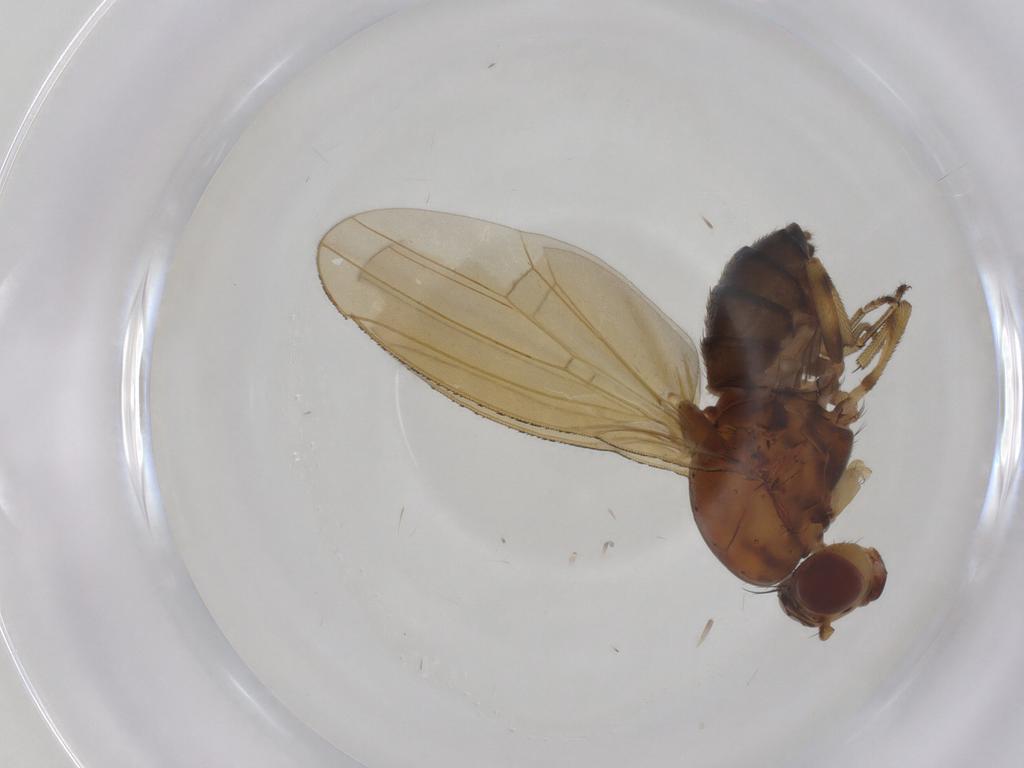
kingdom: Animalia
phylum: Arthropoda
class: Insecta
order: Diptera
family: Lauxaniidae
